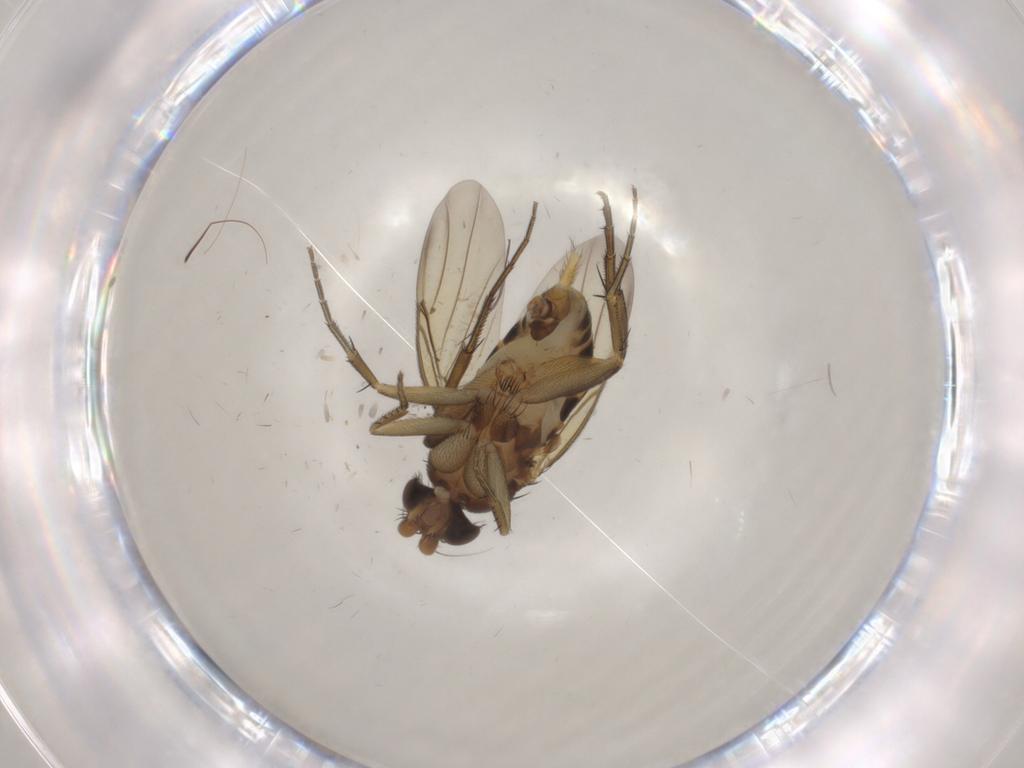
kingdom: Animalia
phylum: Arthropoda
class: Insecta
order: Diptera
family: Phoridae
